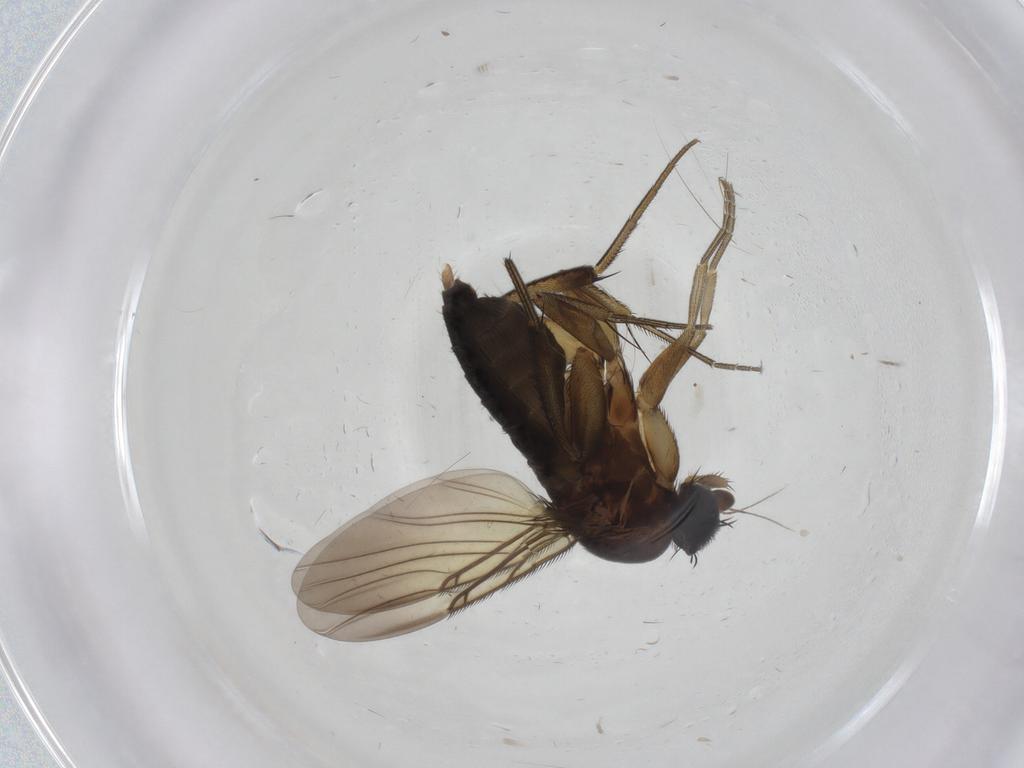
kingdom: Animalia
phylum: Arthropoda
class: Insecta
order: Diptera
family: Phoridae
